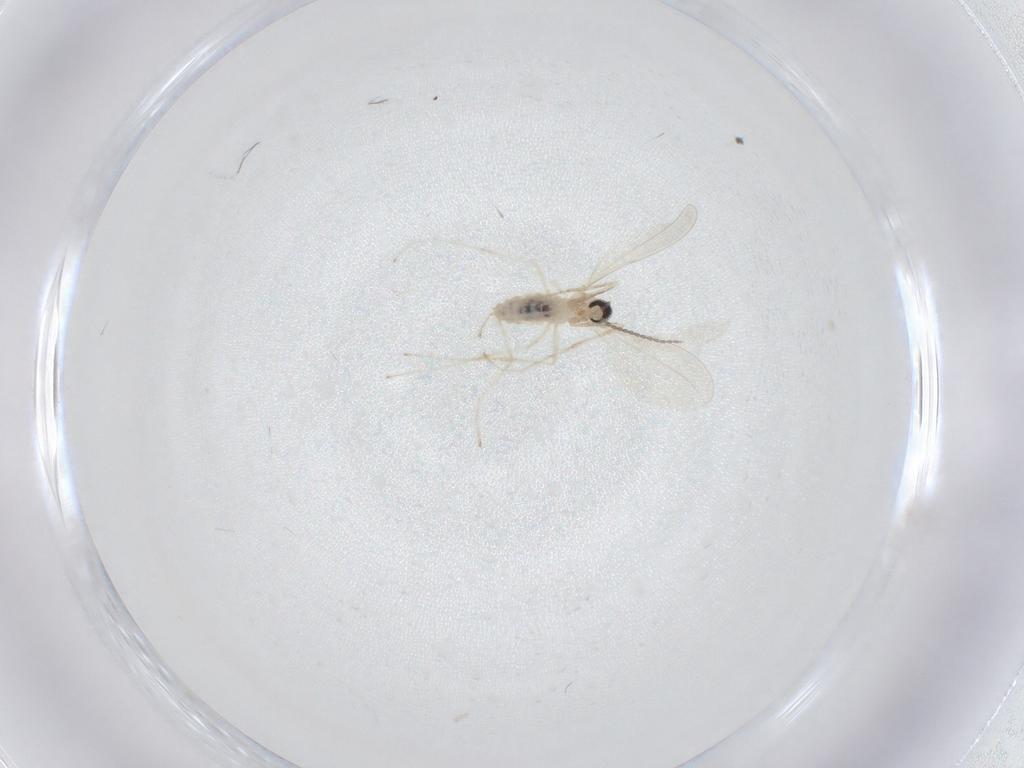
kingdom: Animalia
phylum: Arthropoda
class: Insecta
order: Diptera
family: Cecidomyiidae
